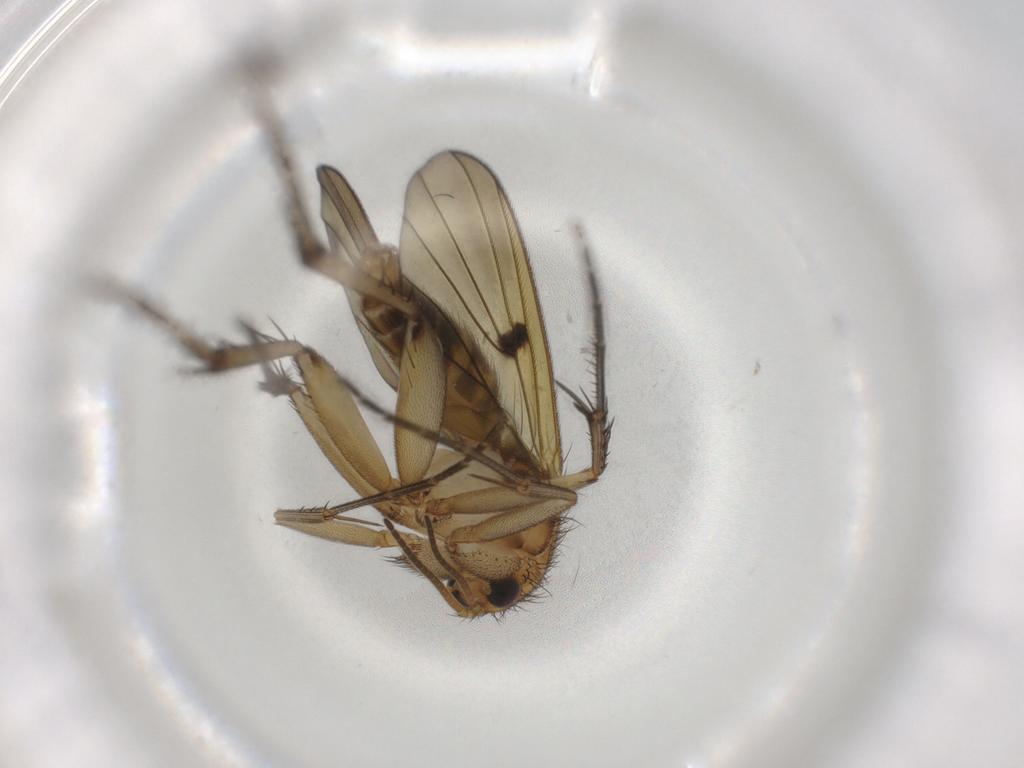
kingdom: Animalia
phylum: Arthropoda
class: Insecta
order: Diptera
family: Mycetophilidae
